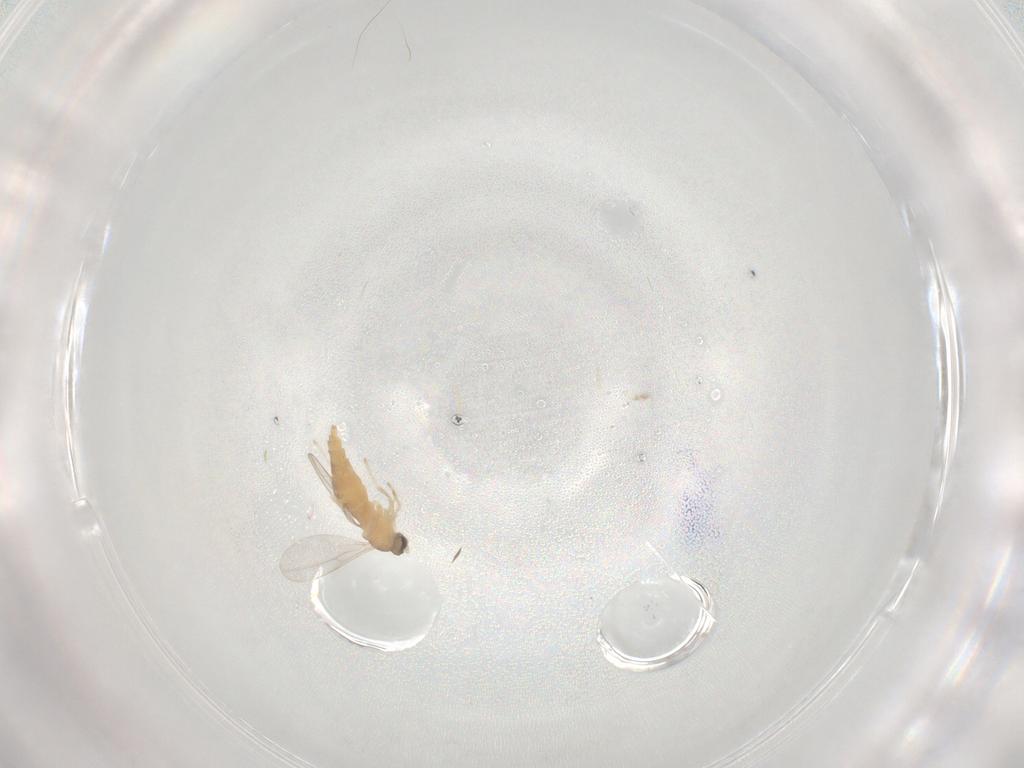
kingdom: Animalia
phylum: Arthropoda
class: Insecta
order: Diptera
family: Cecidomyiidae
